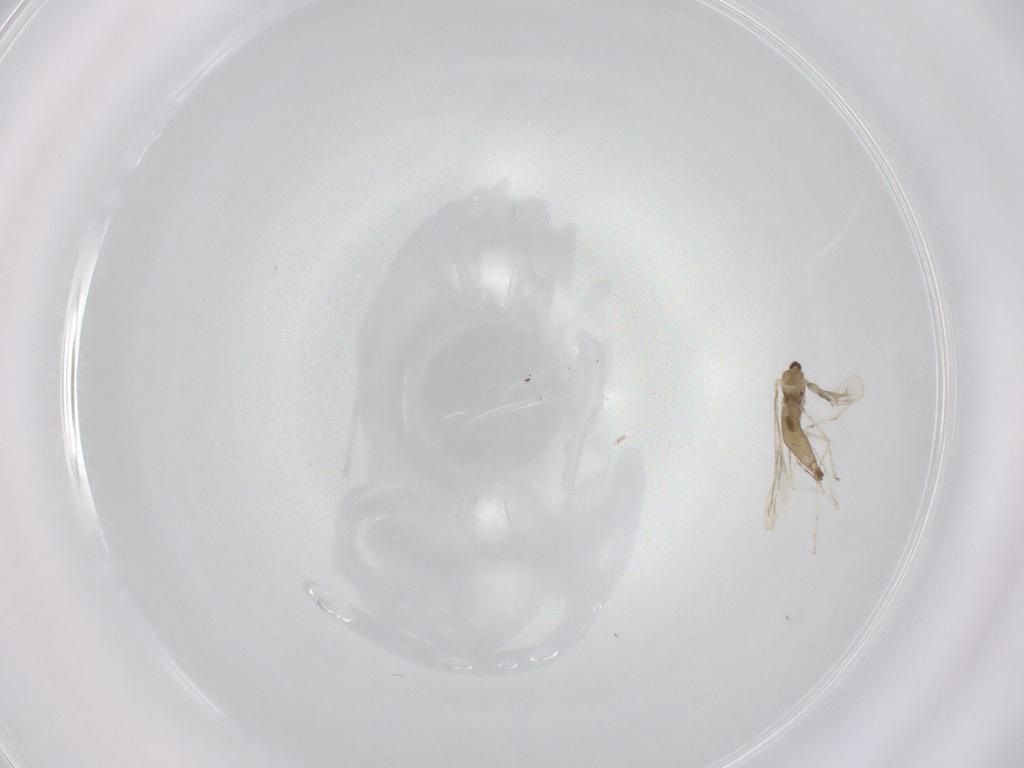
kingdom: Animalia
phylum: Arthropoda
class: Insecta
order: Diptera
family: Cecidomyiidae
